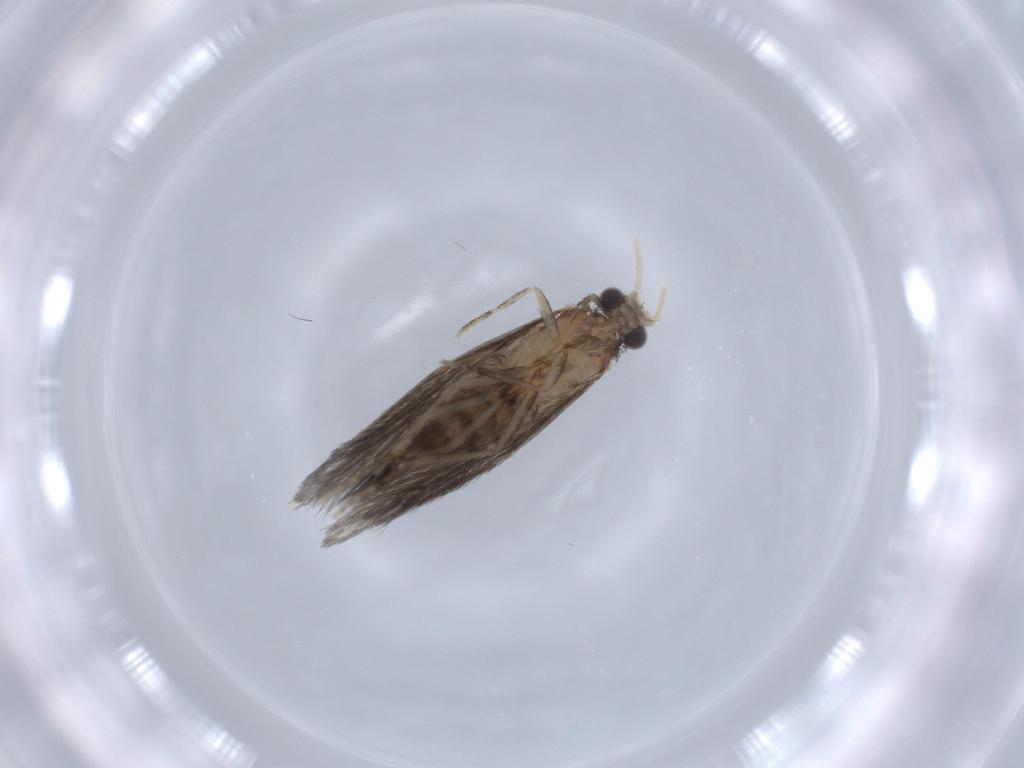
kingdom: Animalia
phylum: Arthropoda
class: Insecta
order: Trichoptera
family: Hydroptilidae
